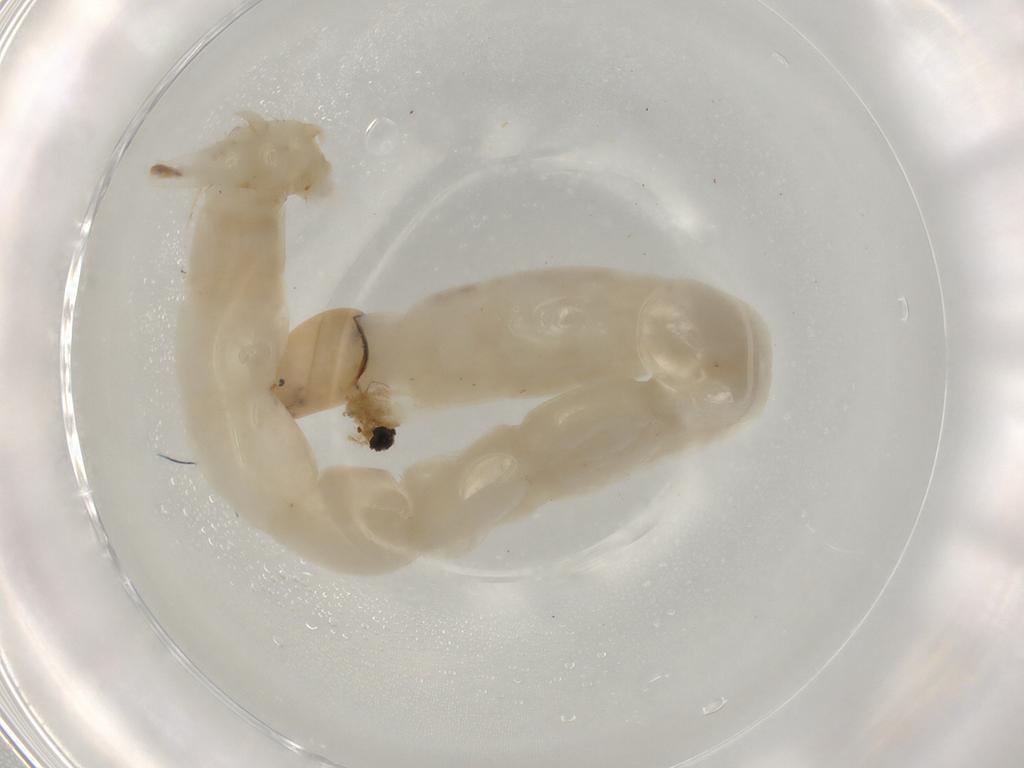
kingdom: Animalia
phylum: Arthropoda
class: Insecta
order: Diptera
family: Chironomidae
